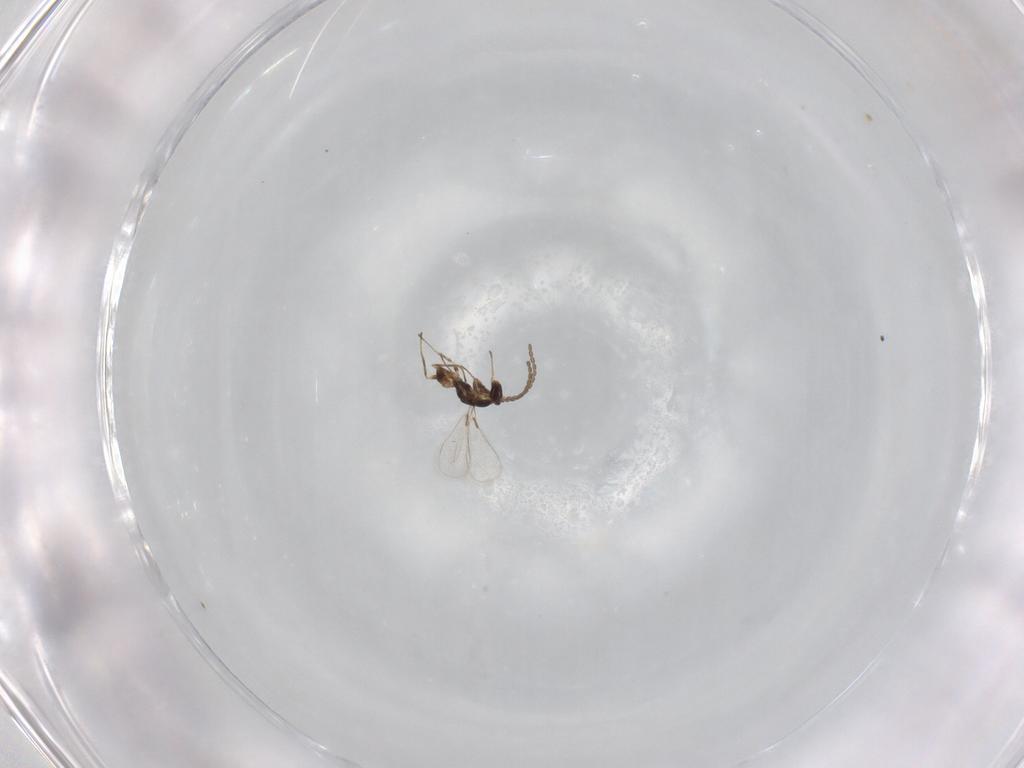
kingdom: Animalia
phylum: Arthropoda
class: Insecta
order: Hymenoptera
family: Mymaridae
